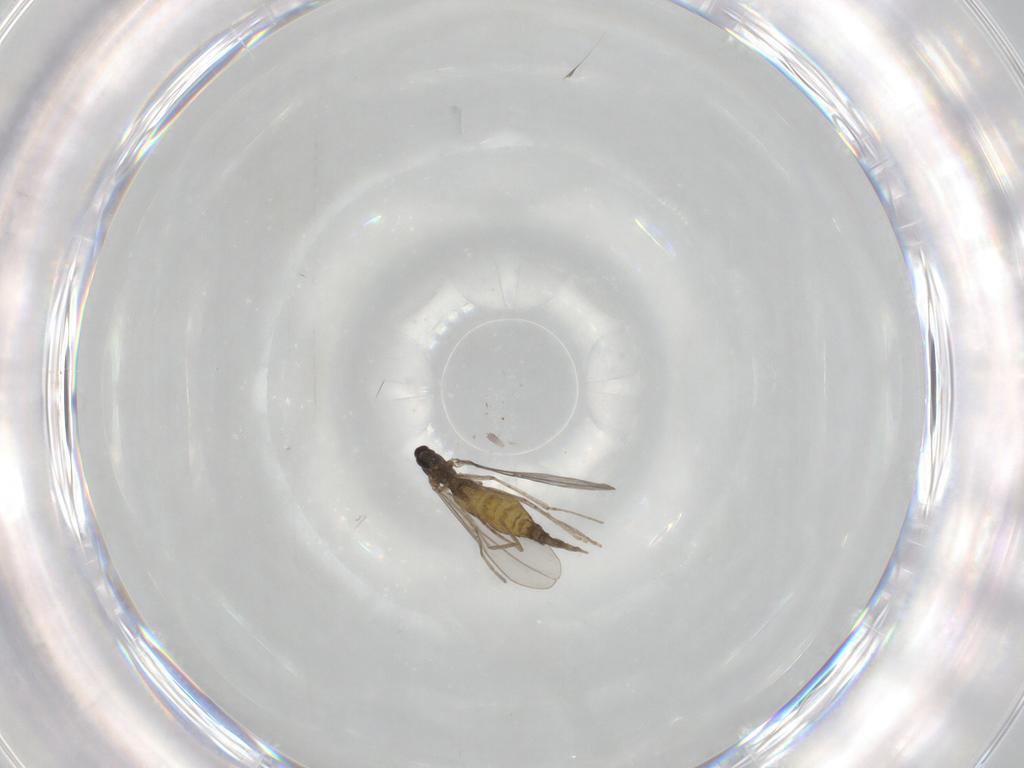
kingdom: Animalia
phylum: Arthropoda
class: Insecta
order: Diptera
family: Cecidomyiidae
